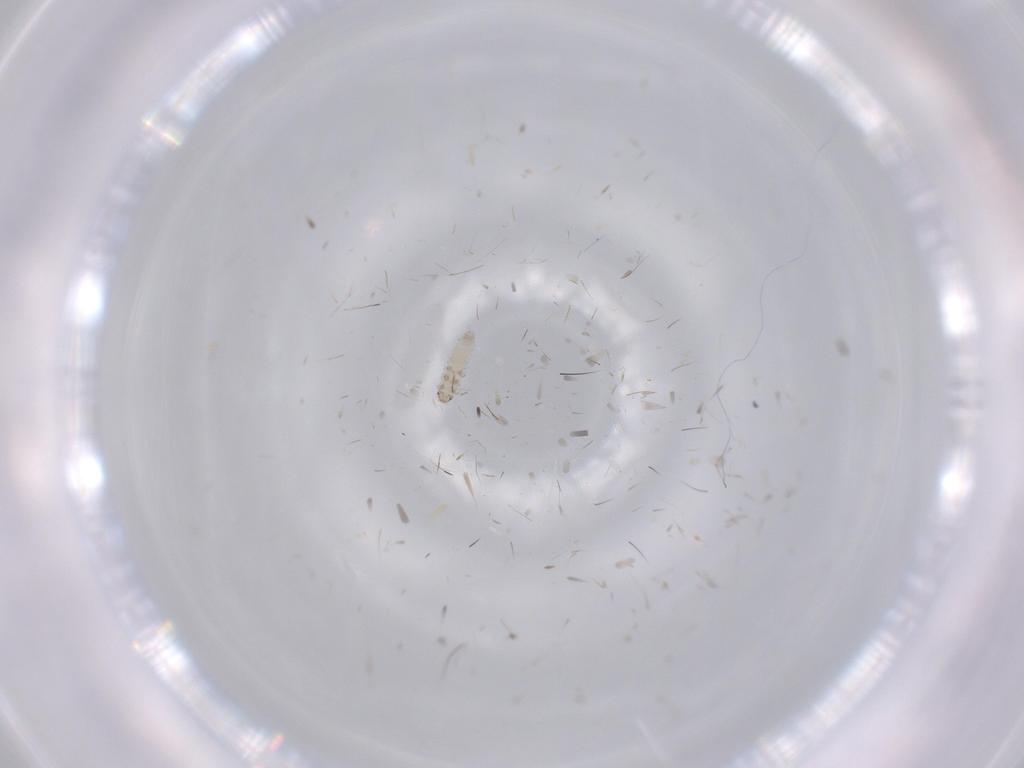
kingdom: Animalia
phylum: Arthropoda
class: Insecta
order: Coleoptera
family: Coccinellidae
